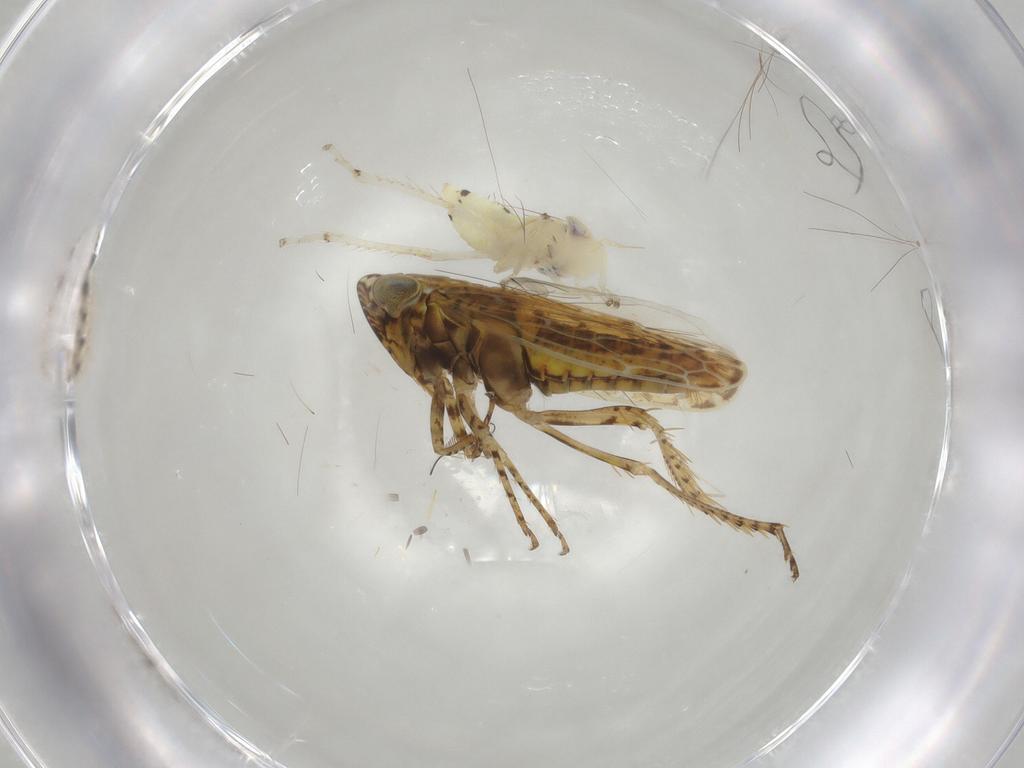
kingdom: Animalia
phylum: Arthropoda
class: Insecta
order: Hemiptera
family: Cicadellidae
